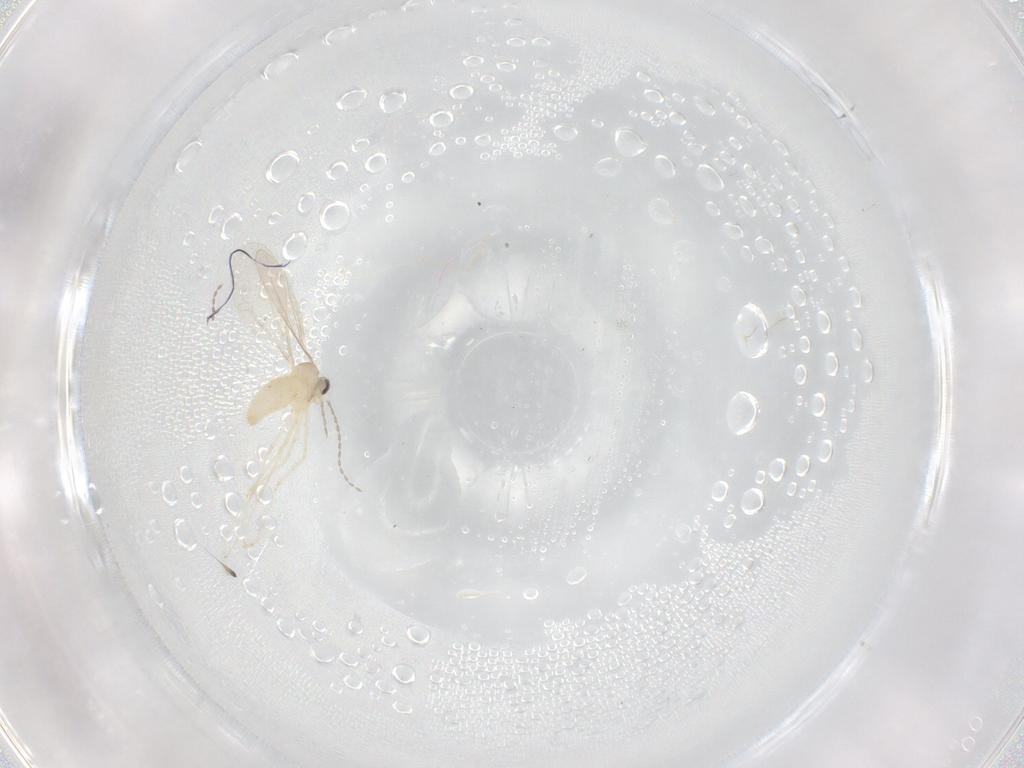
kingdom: Animalia
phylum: Arthropoda
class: Insecta
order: Diptera
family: Cecidomyiidae
